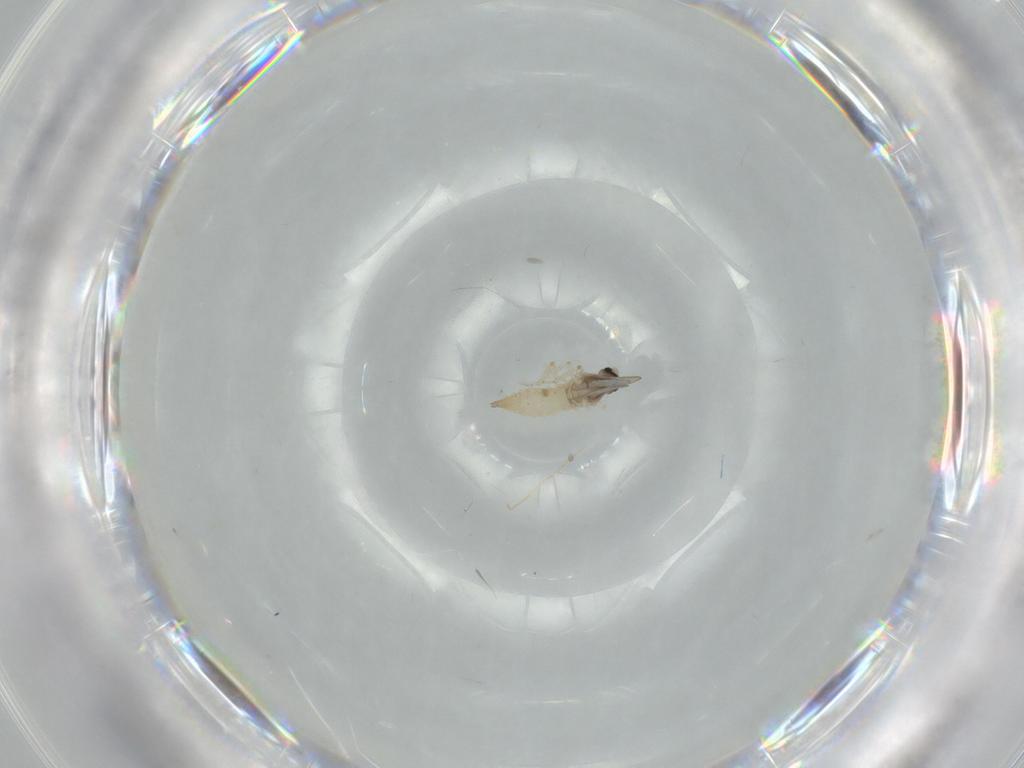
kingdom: Animalia
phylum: Arthropoda
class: Insecta
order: Diptera
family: Cecidomyiidae
